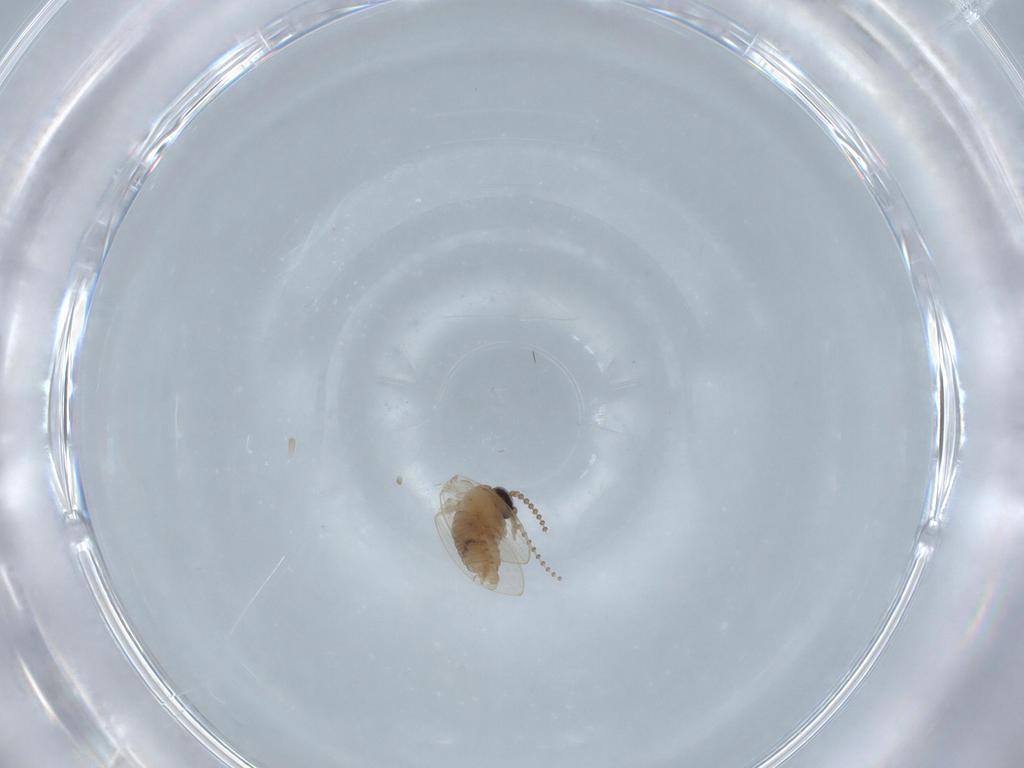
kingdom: Animalia
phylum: Arthropoda
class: Insecta
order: Diptera
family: Psychodidae
